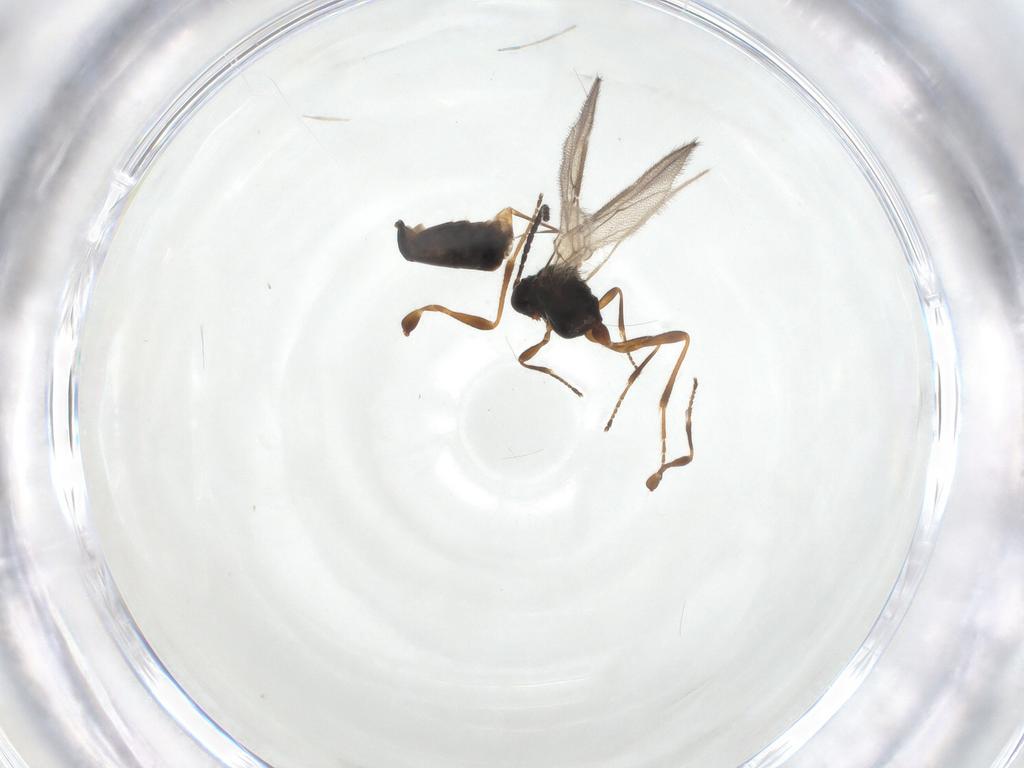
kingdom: Animalia
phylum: Arthropoda
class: Insecta
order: Hymenoptera
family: Braconidae
